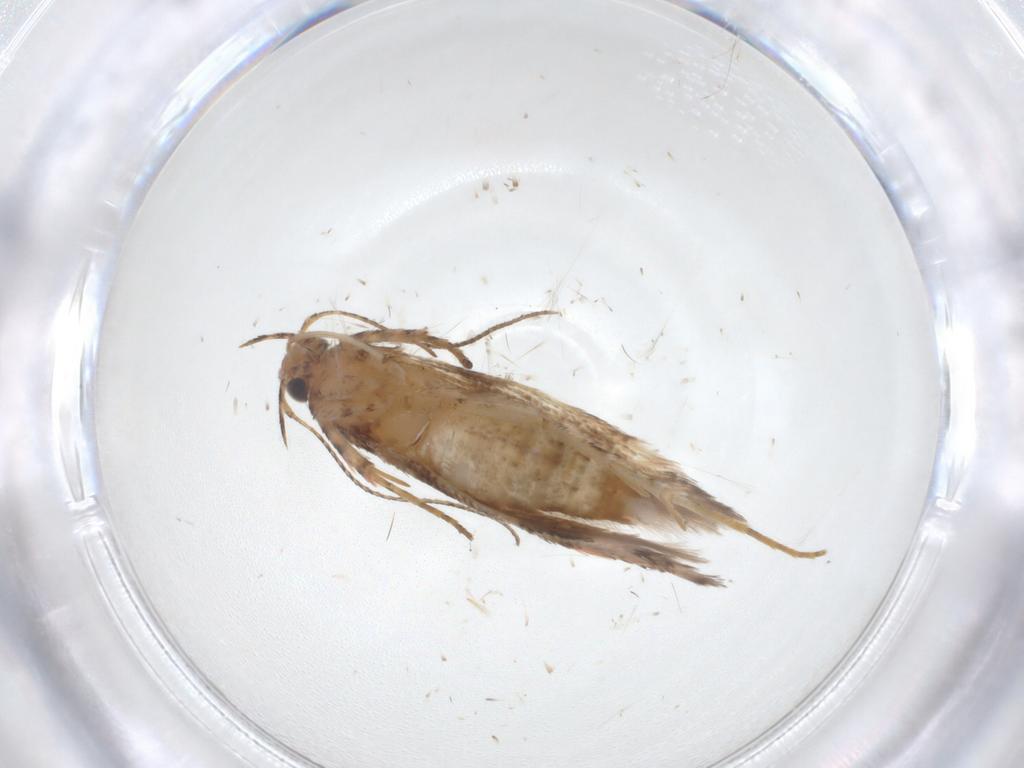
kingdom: Animalia
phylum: Arthropoda
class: Insecta
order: Lepidoptera
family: Gelechiidae
